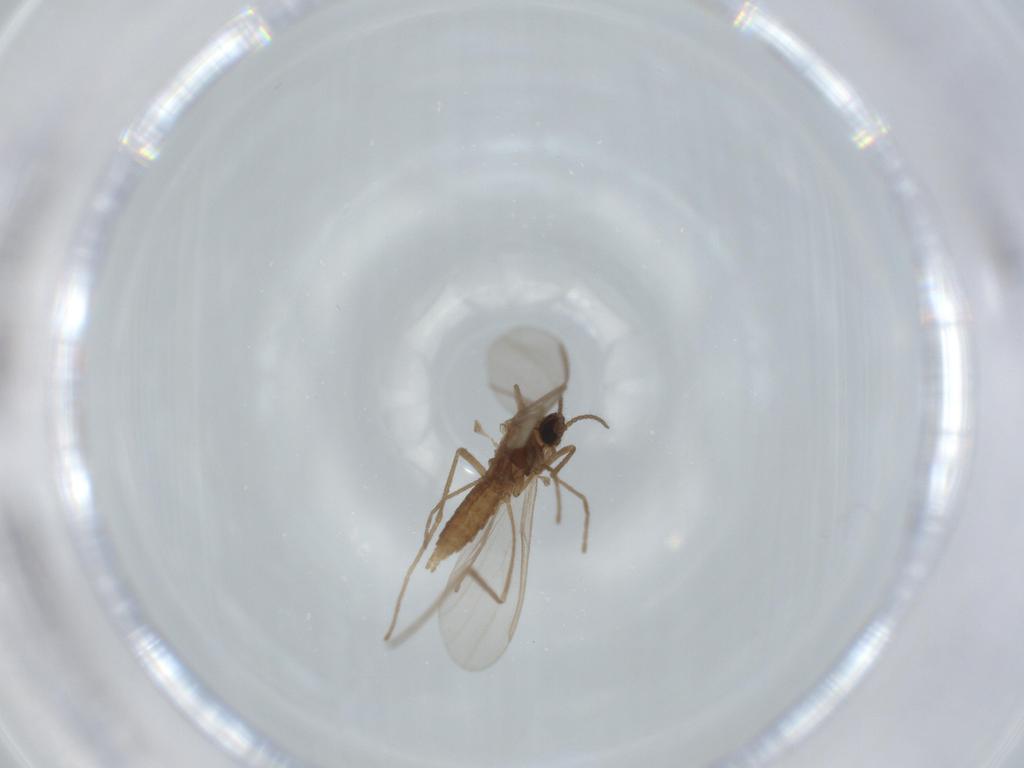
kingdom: Animalia
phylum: Arthropoda
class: Insecta
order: Diptera
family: Cecidomyiidae
